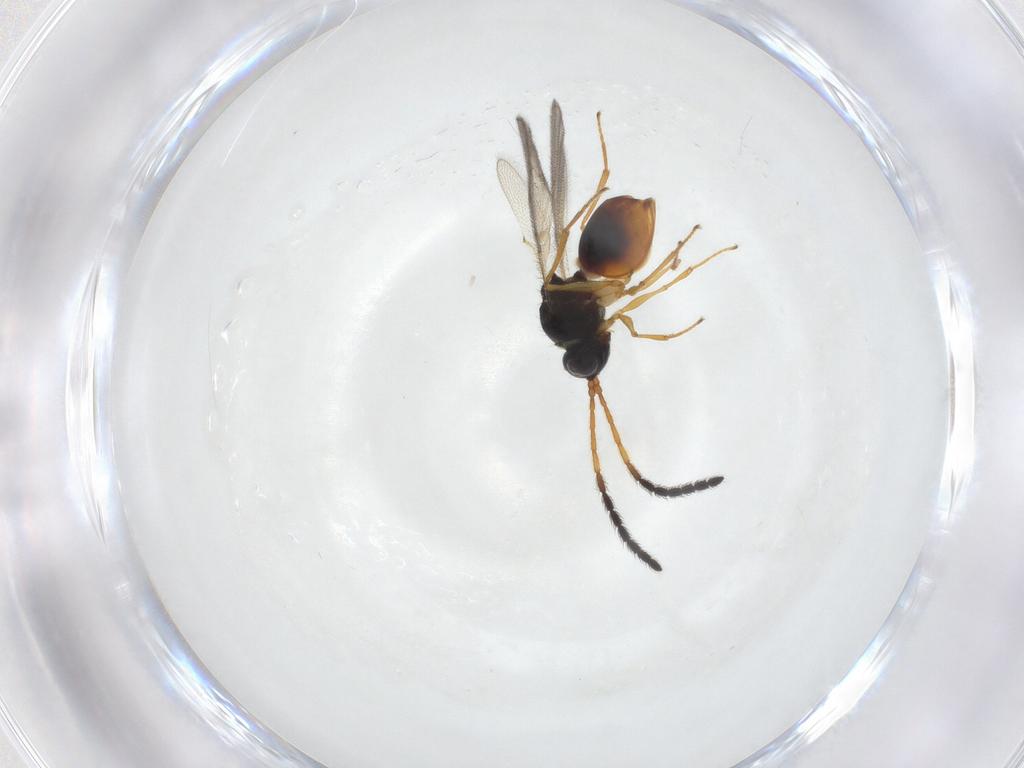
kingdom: Animalia
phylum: Arthropoda
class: Insecta
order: Hymenoptera
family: Figitidae
